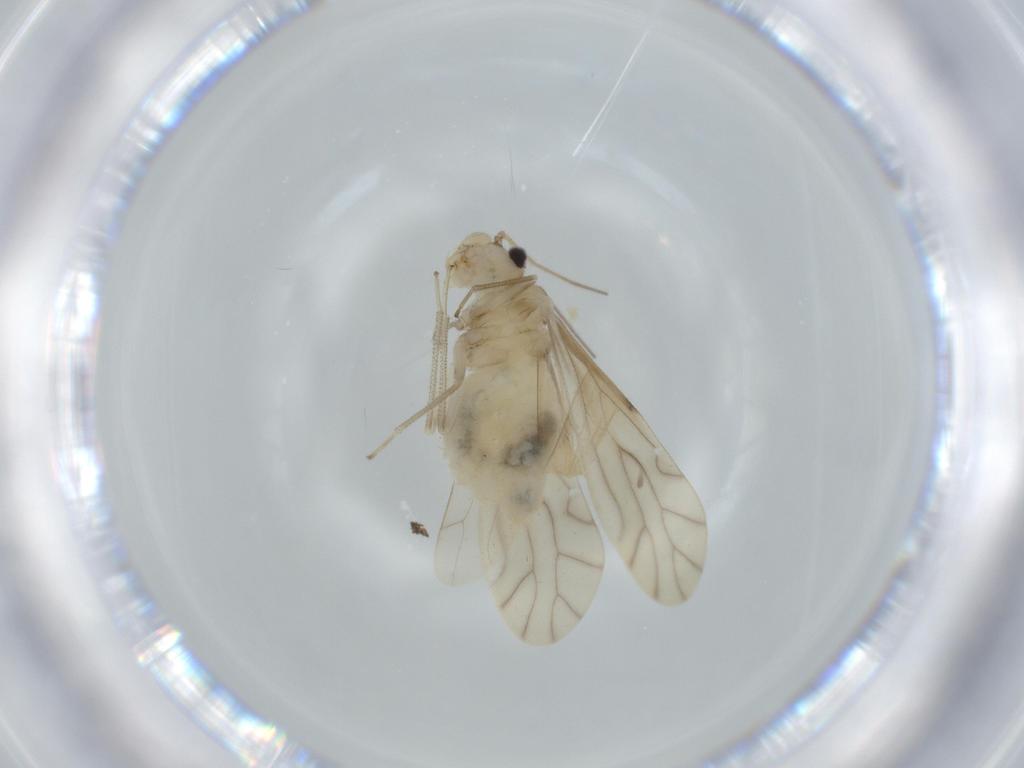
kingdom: Animalia
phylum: Arthropoda
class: Insecta
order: Psocodea
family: Caeciliusidae
